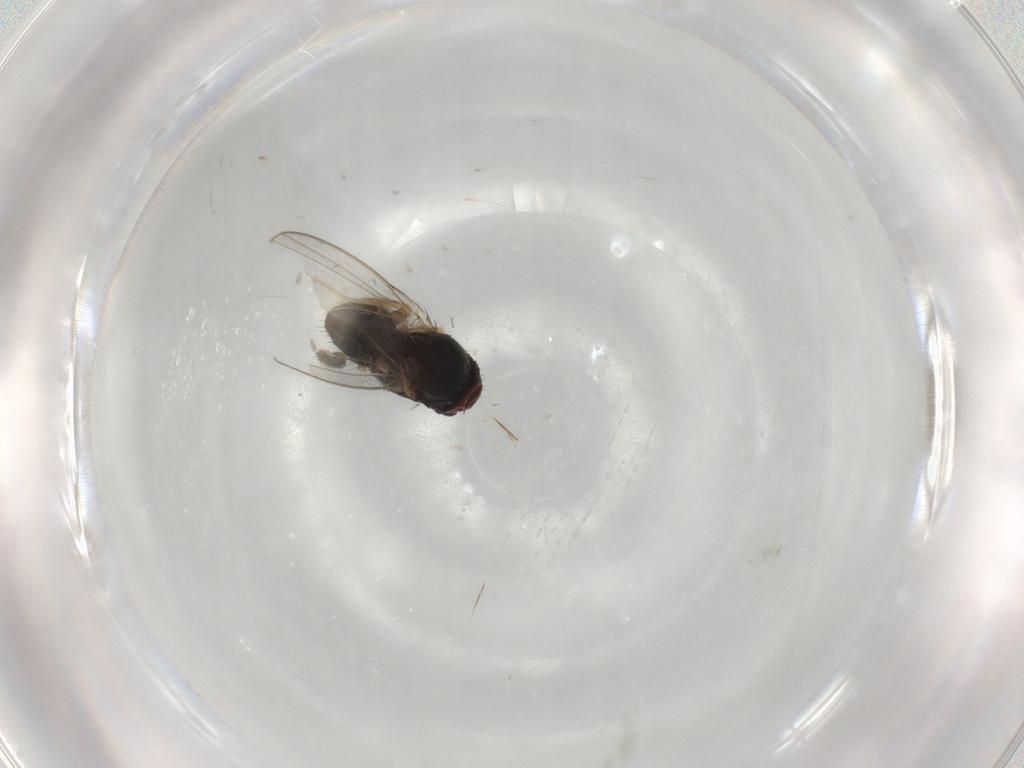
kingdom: Animalia
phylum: Arthropoda
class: Insecta
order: Diptera
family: Milichiidae
